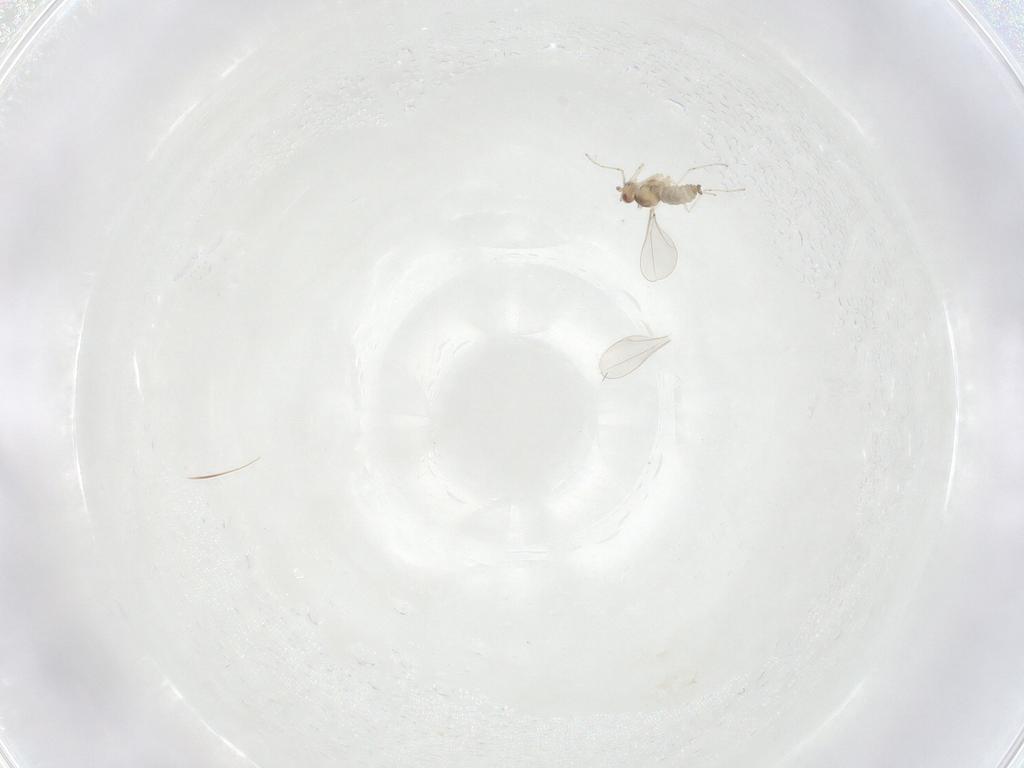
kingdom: Animalia
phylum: Arthropoda
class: Insecta
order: Diptera
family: Cecidomyiidae
